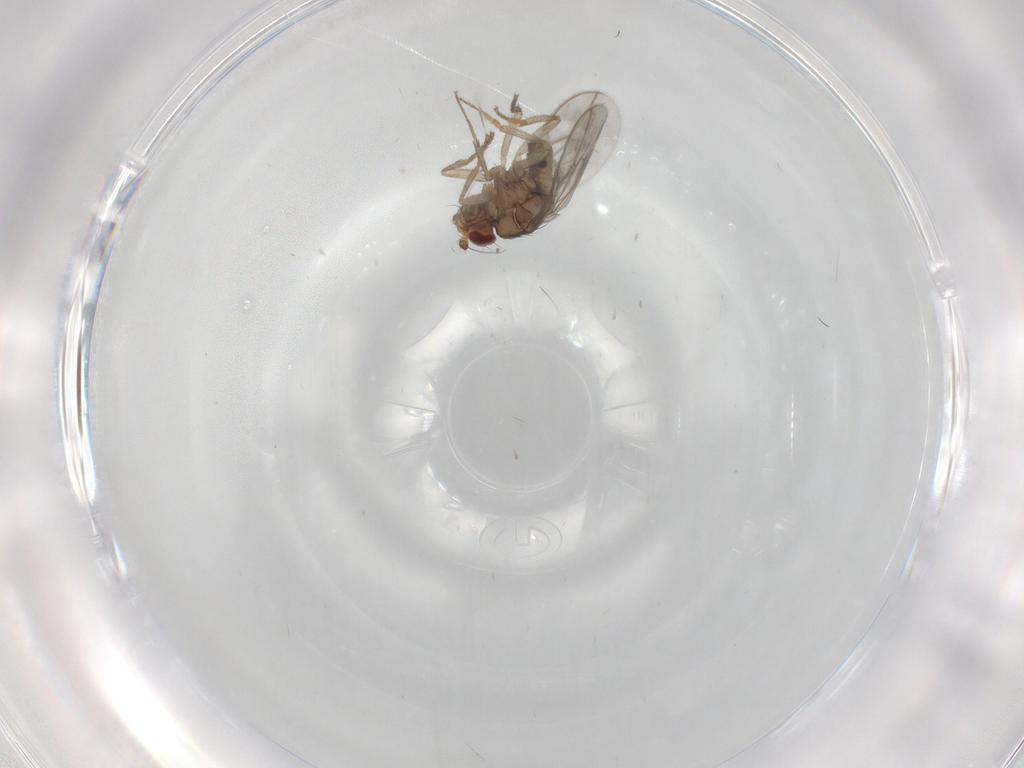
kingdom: Animalia
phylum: Arthropoda
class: Insecta
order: Diptera
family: Sphaeroceridae
